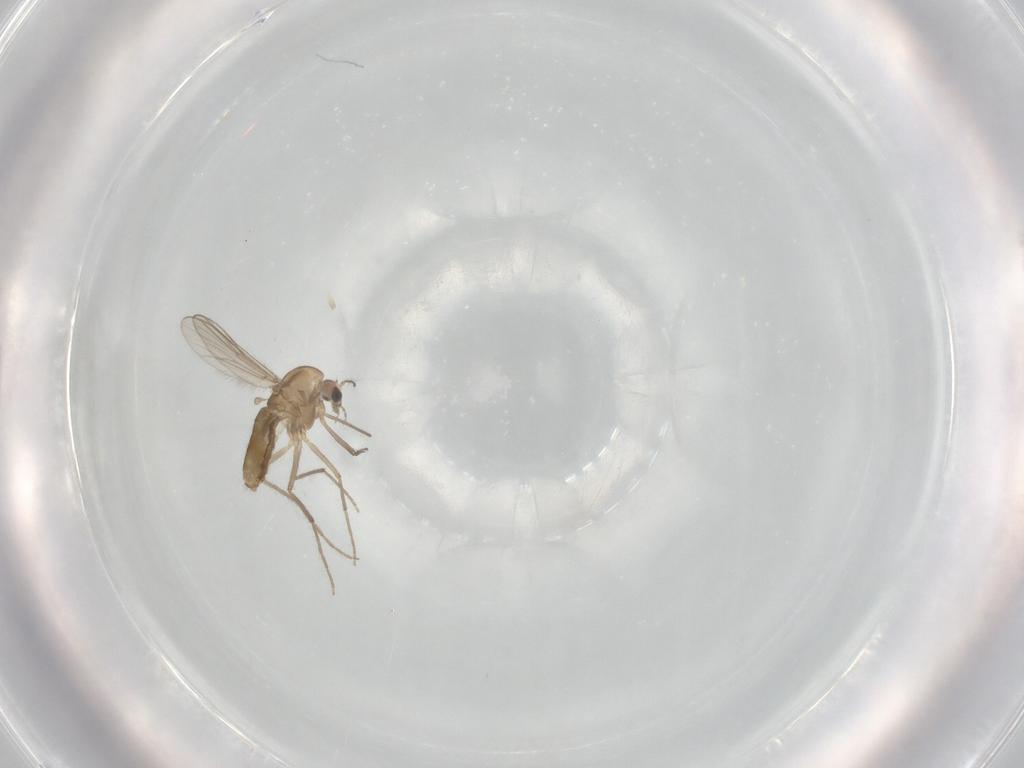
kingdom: Animalia
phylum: Arthropoda
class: Insecta
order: Diptera
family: Chironomidae
